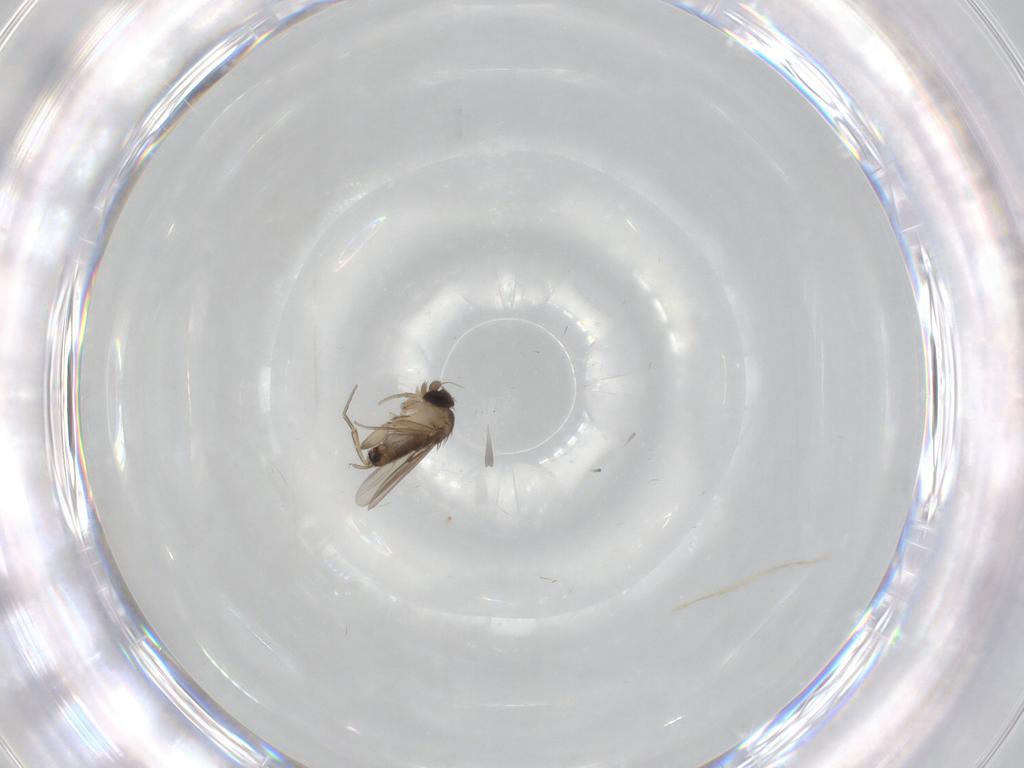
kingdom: Animalia
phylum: Arthropoda
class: Insecta
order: Diptera
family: Phoridae
